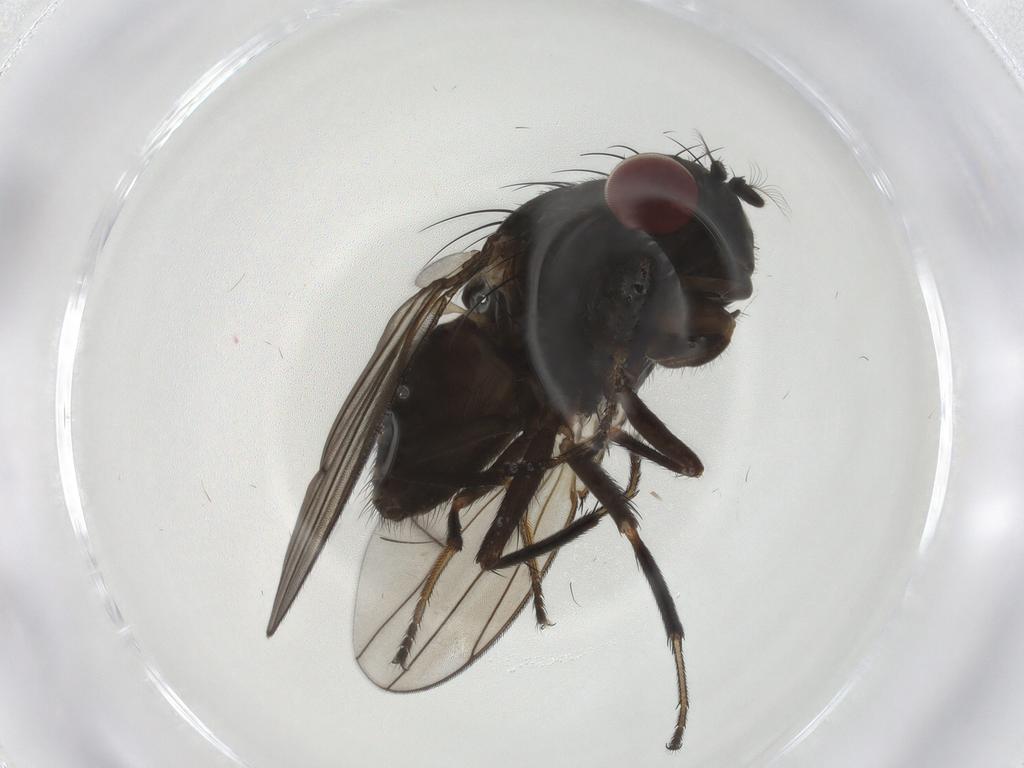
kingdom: Animalia
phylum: Arthropoda
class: Insecta
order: Diptera
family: Ephydridae
